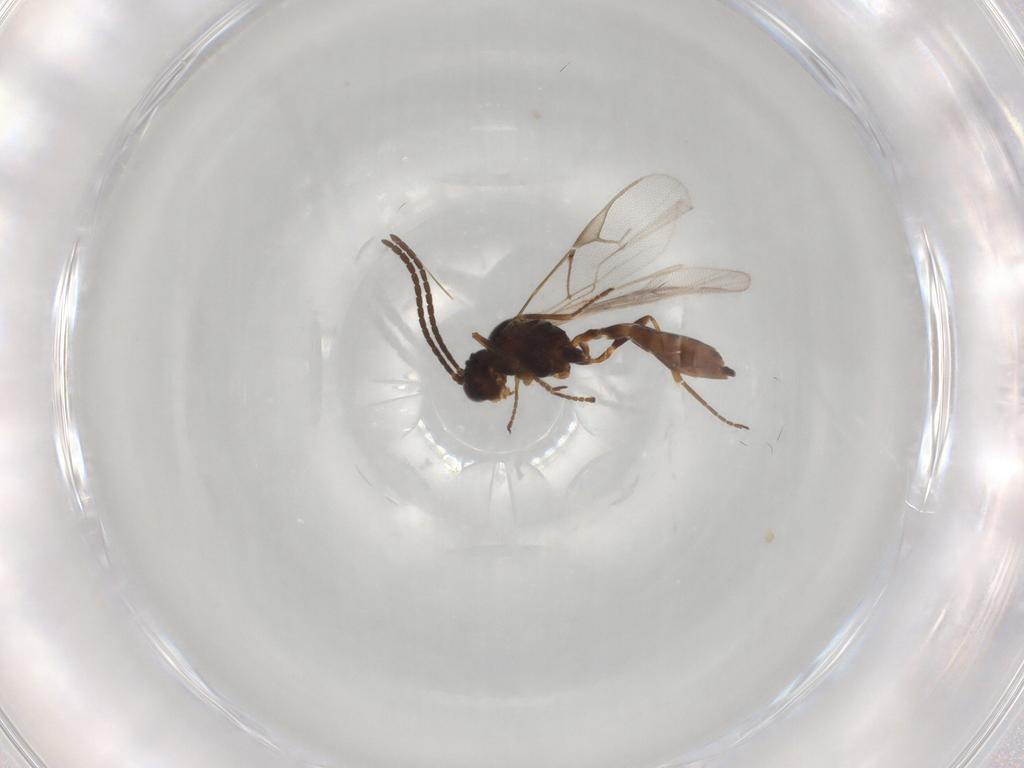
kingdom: Animalia
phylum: Arthropoda
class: Insecta
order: Hymenoptera
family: Braconidae
